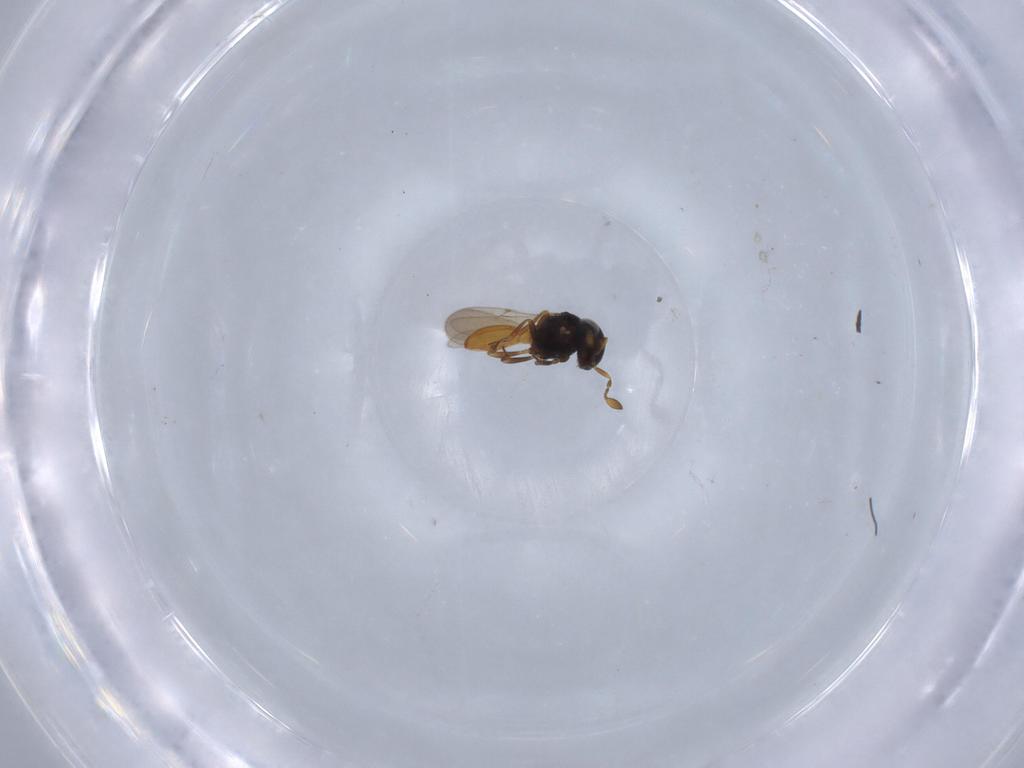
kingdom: Animalia
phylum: Arthropoda
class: Insecta
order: Hymenoptera
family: Scelionidae
